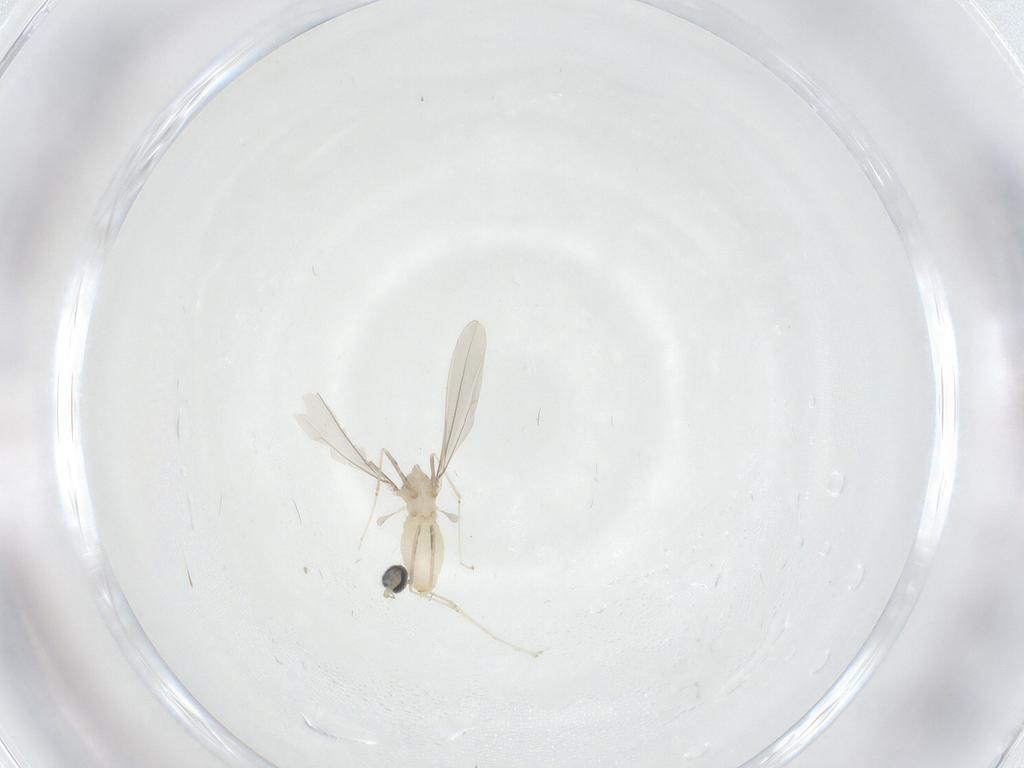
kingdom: Animalia
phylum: Arthropoda
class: Insecta
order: Diptera
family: Cecidomyiidae
